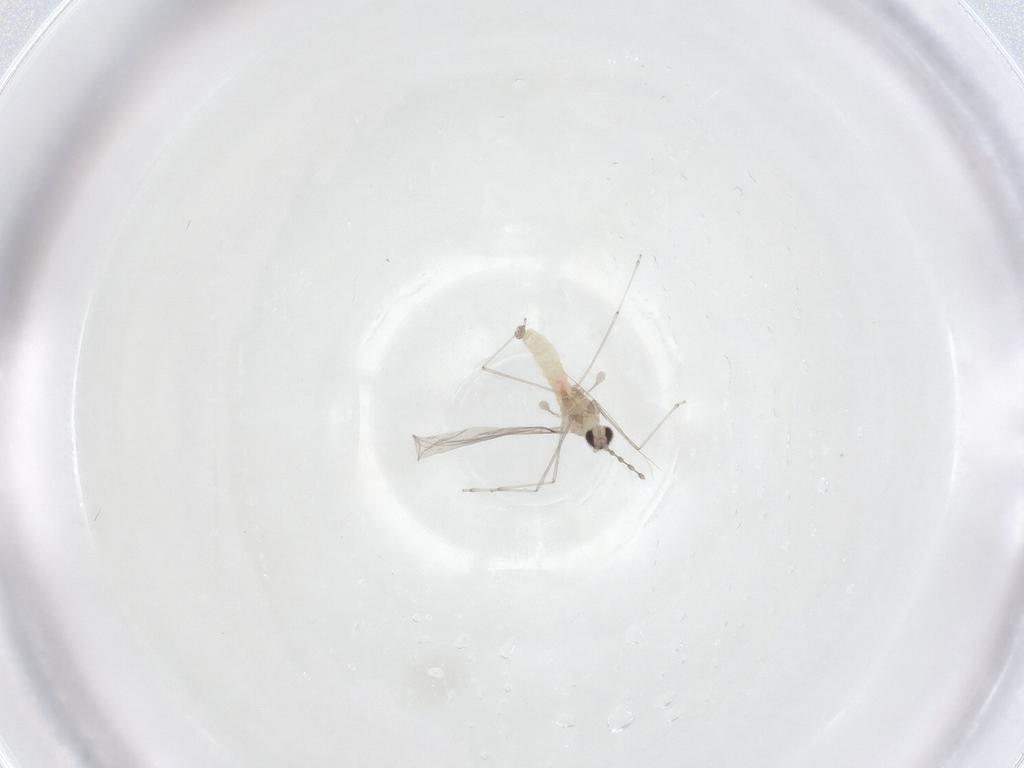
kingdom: Animalia
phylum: Arthropoda
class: Insecta
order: Diptera
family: Cecidomyiidae
